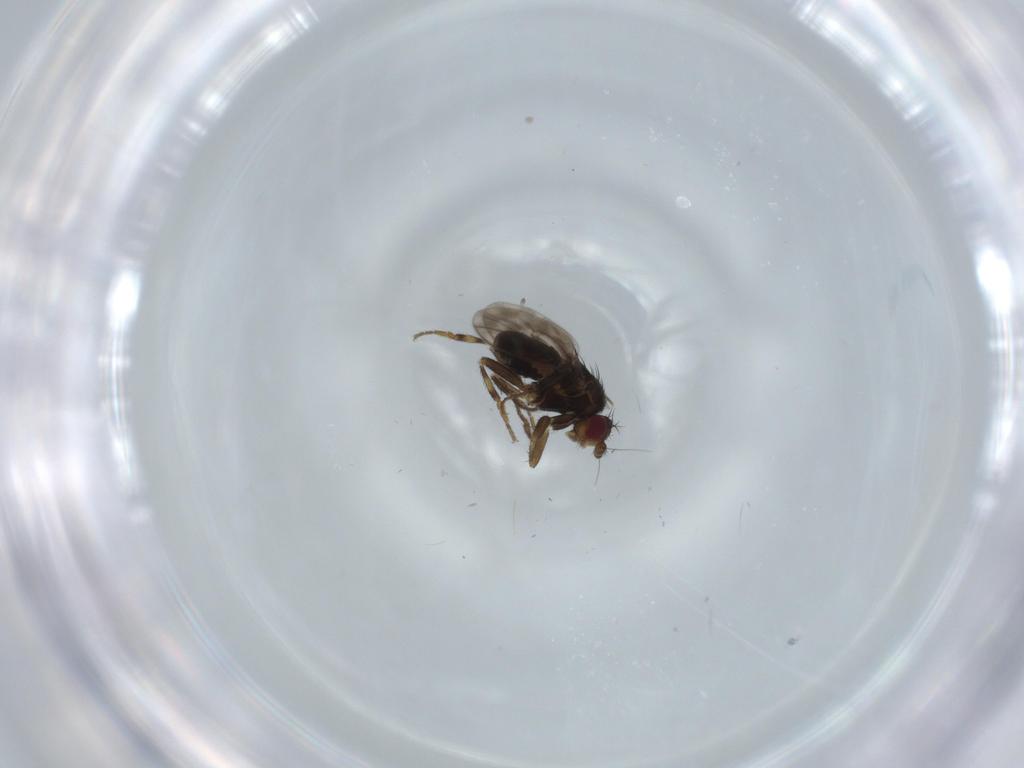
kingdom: Animalia
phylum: Arthropoda
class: Insecta
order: Diptera
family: Sphaeroceridae
